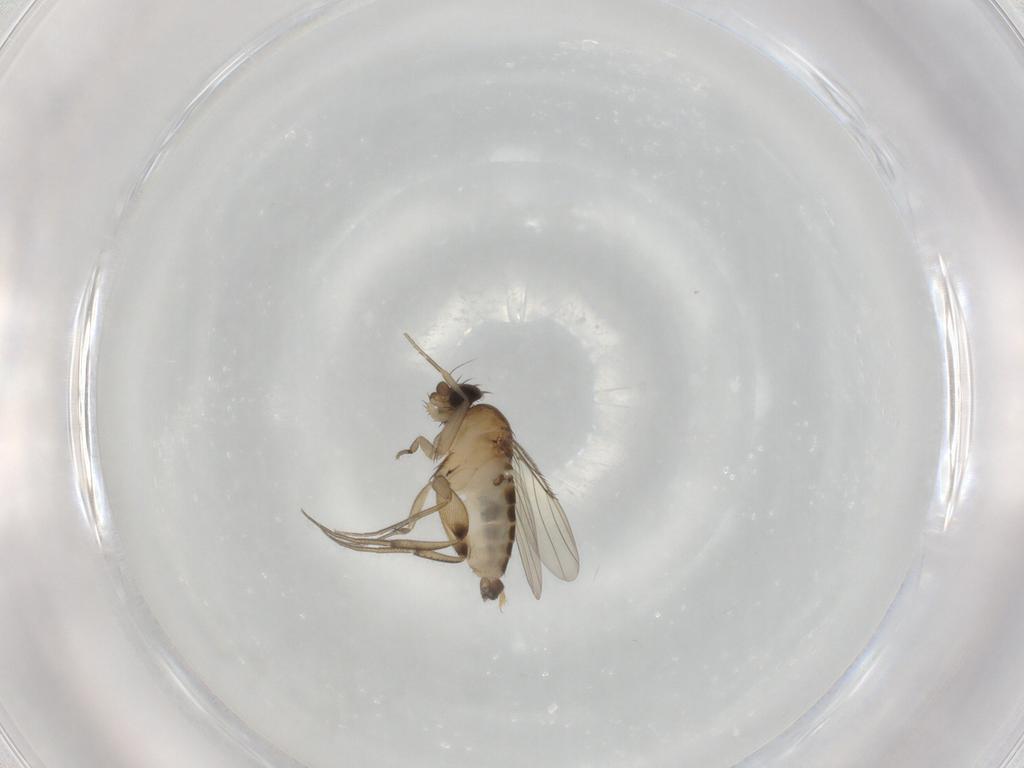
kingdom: Animalia
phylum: Arthropoda
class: Insecta
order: Diptera
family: Phoridae
